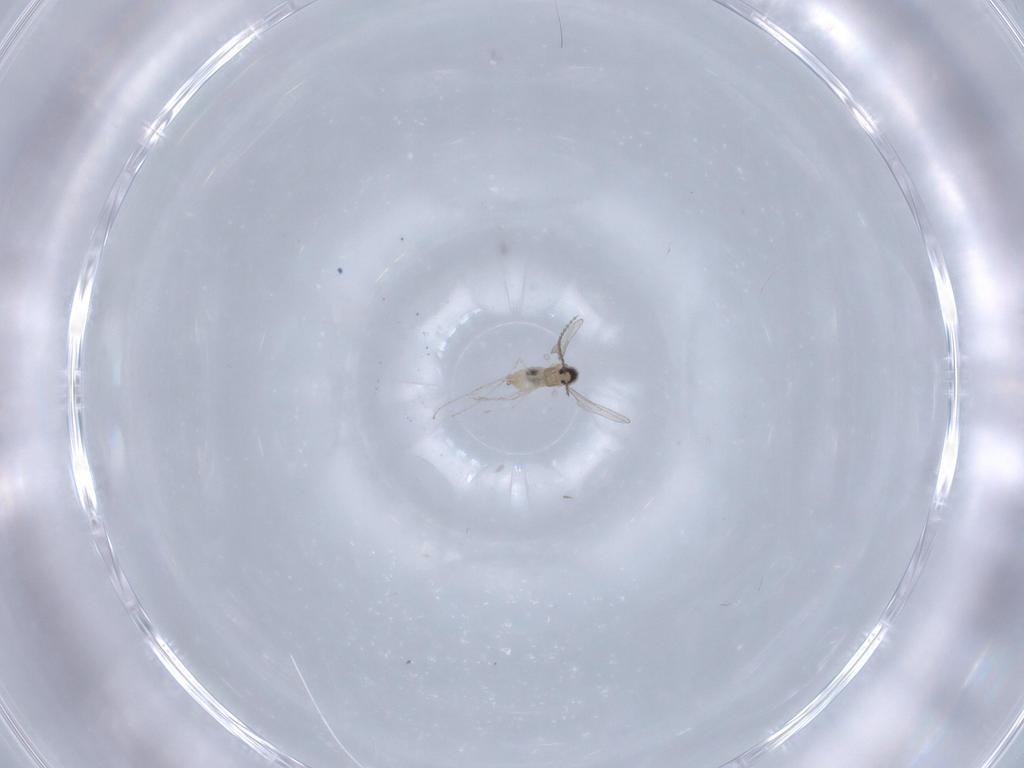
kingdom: Animalia
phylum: Arthropoda
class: Insecta
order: Diptera
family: Cecidomyiidae
